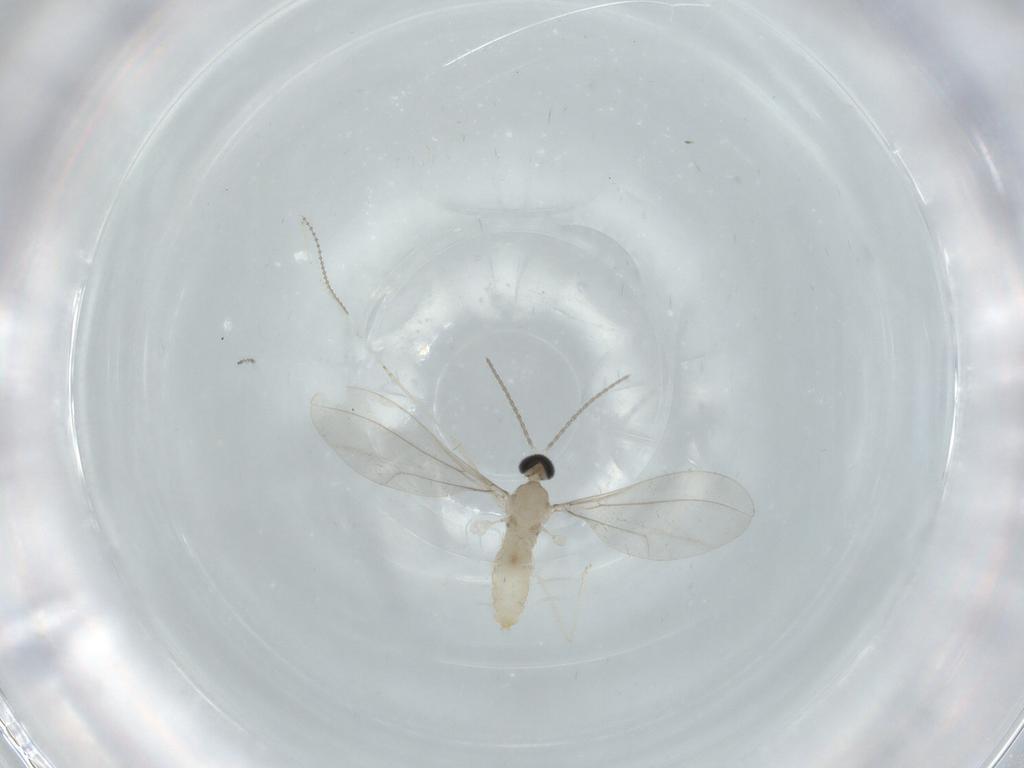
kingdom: Animalia
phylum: Arthropoda
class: Insecta
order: Diptera
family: Cecidomyiidae
